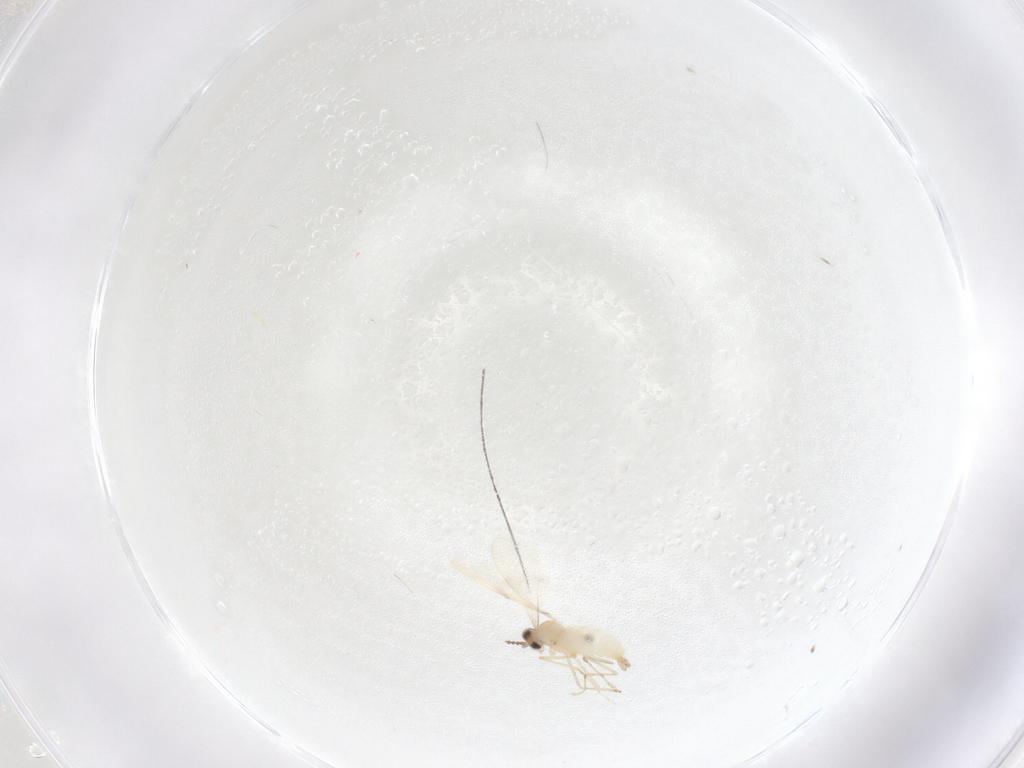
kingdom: Animalia
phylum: Arthropoda
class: Insecta
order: Diptera
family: Cecidomyiidae
